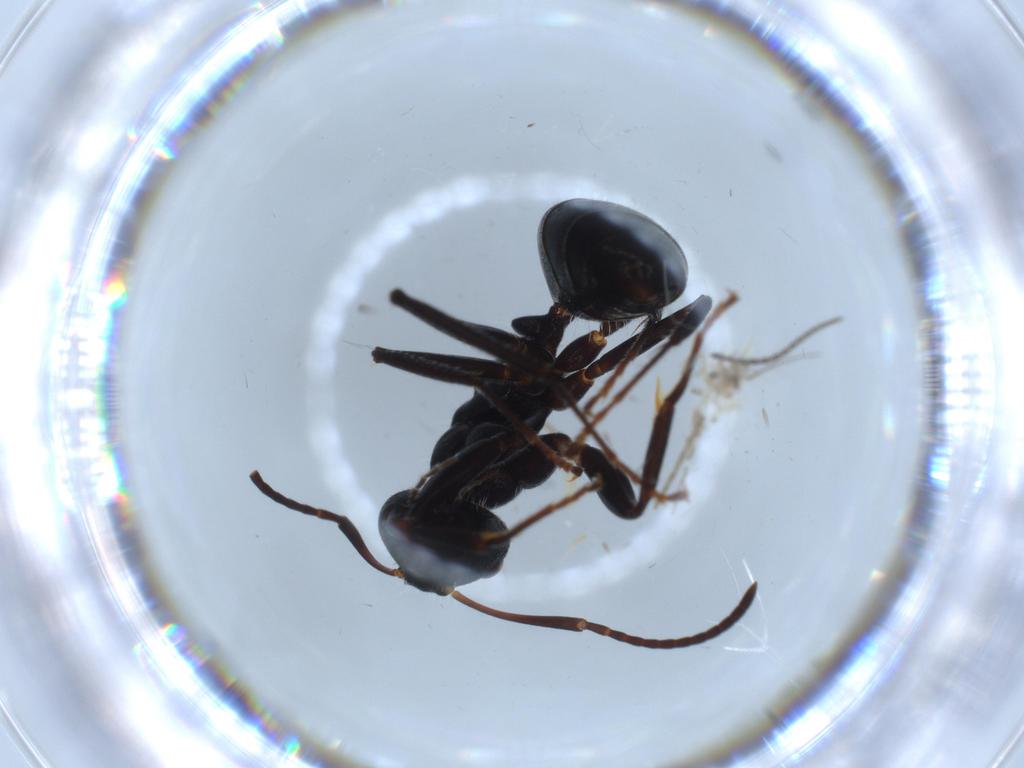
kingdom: Animalia
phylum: Arthropoda
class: Insecta
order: Hymenoptera
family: Formicidae
